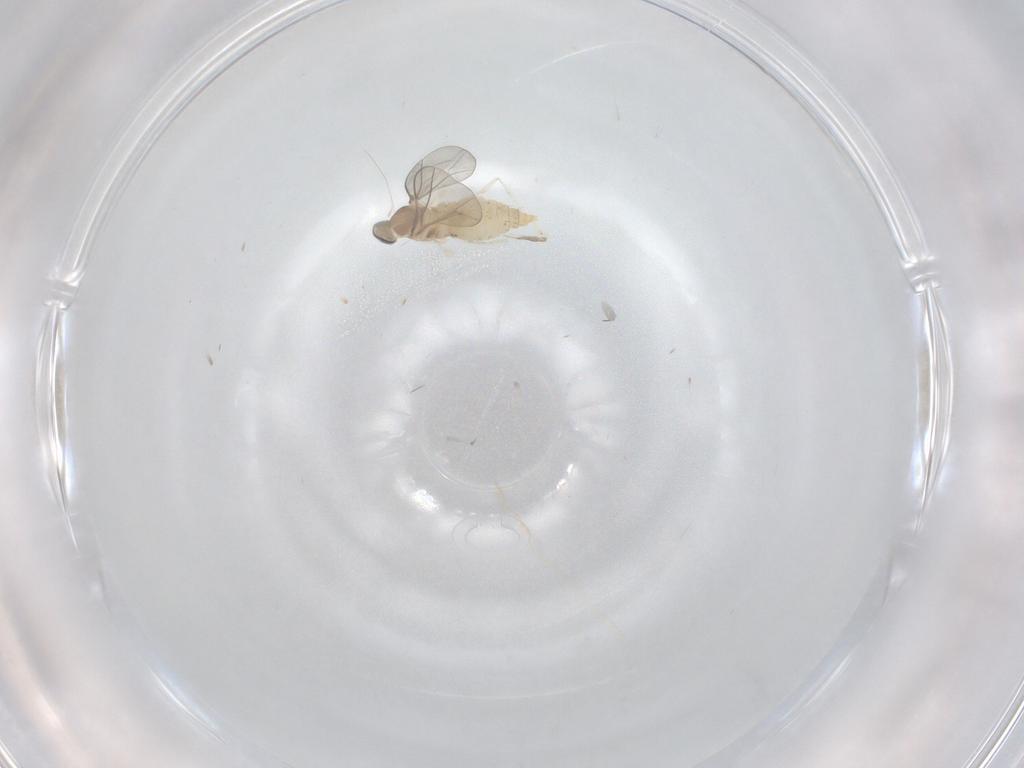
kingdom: Animalia
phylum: Arthropoda
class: Insecta
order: Diptera
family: Cecidomyiidae
